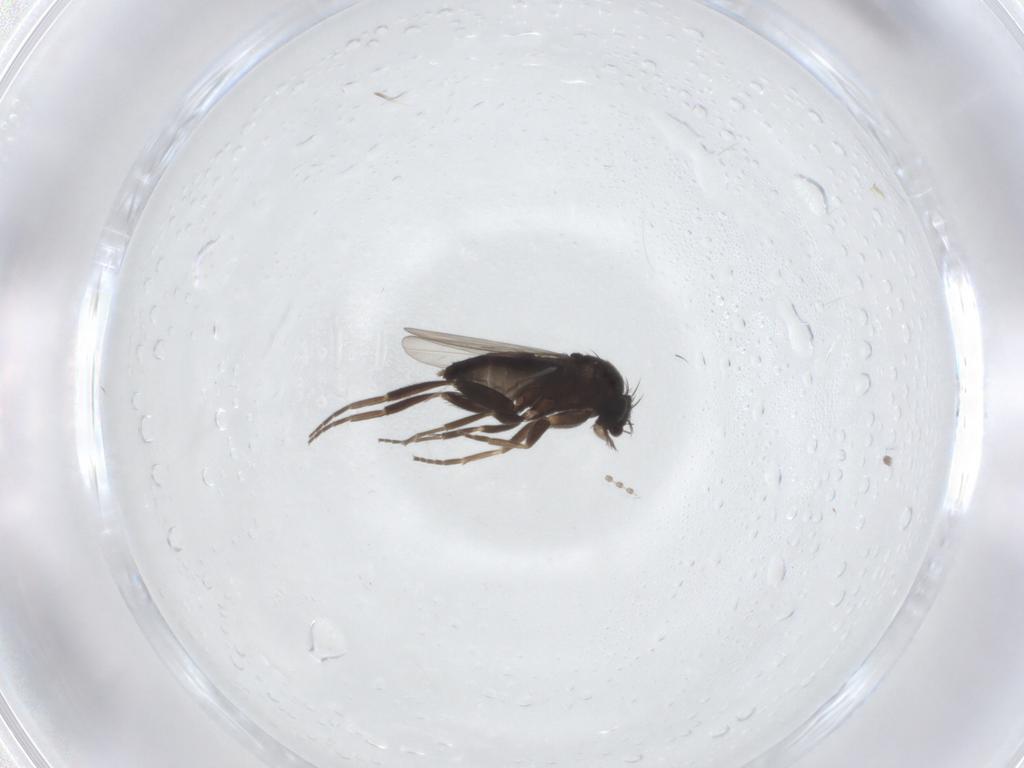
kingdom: Animalia
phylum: Arthropoda
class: Insecta
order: Diptera
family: Phoridae
